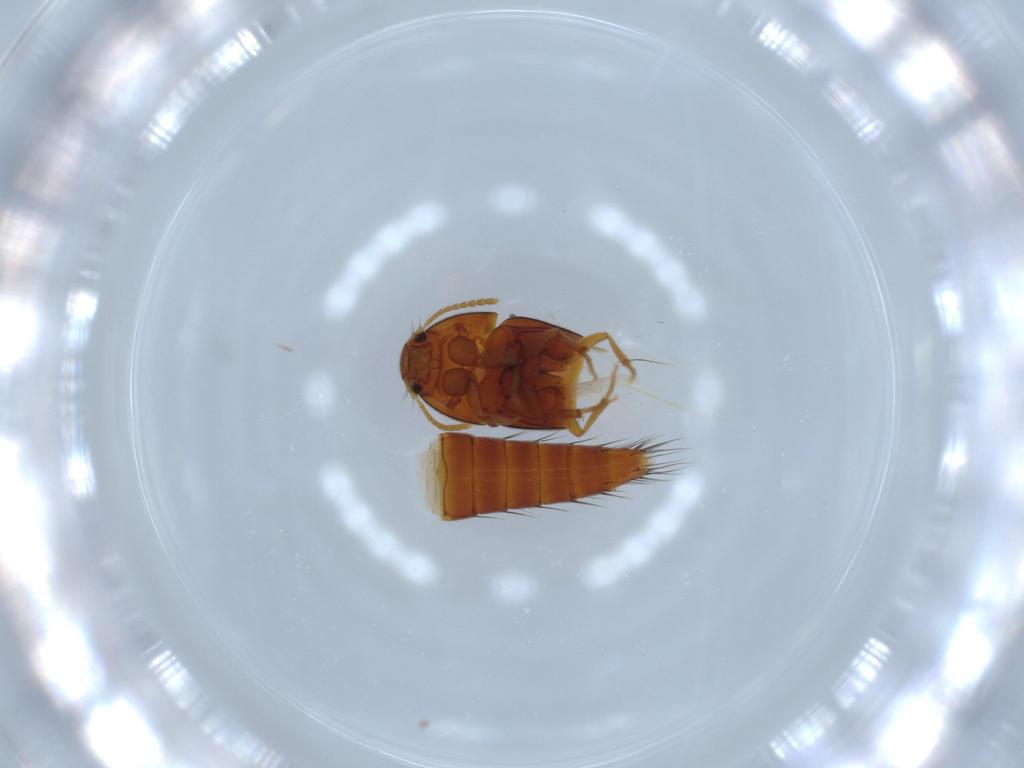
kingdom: Animalia
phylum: Arthropoda
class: Insecta
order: Coleoptera
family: Staphylinidae
